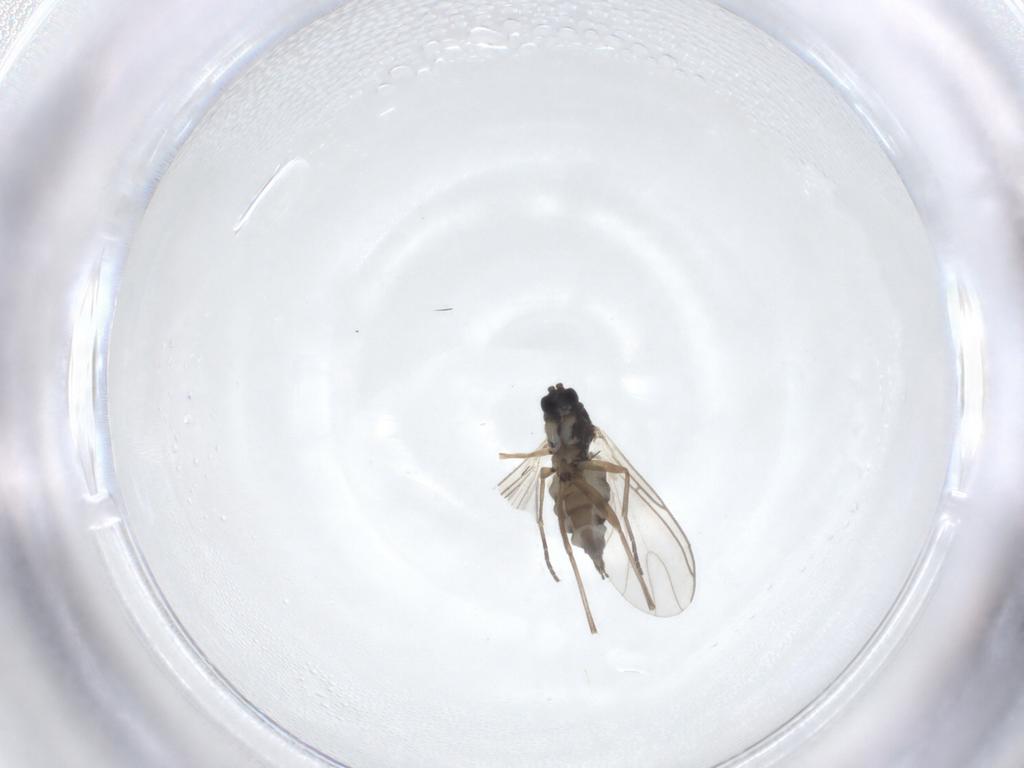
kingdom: Animalia
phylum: Arthropoda
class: Insecta
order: Diptera
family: Sciaridae
